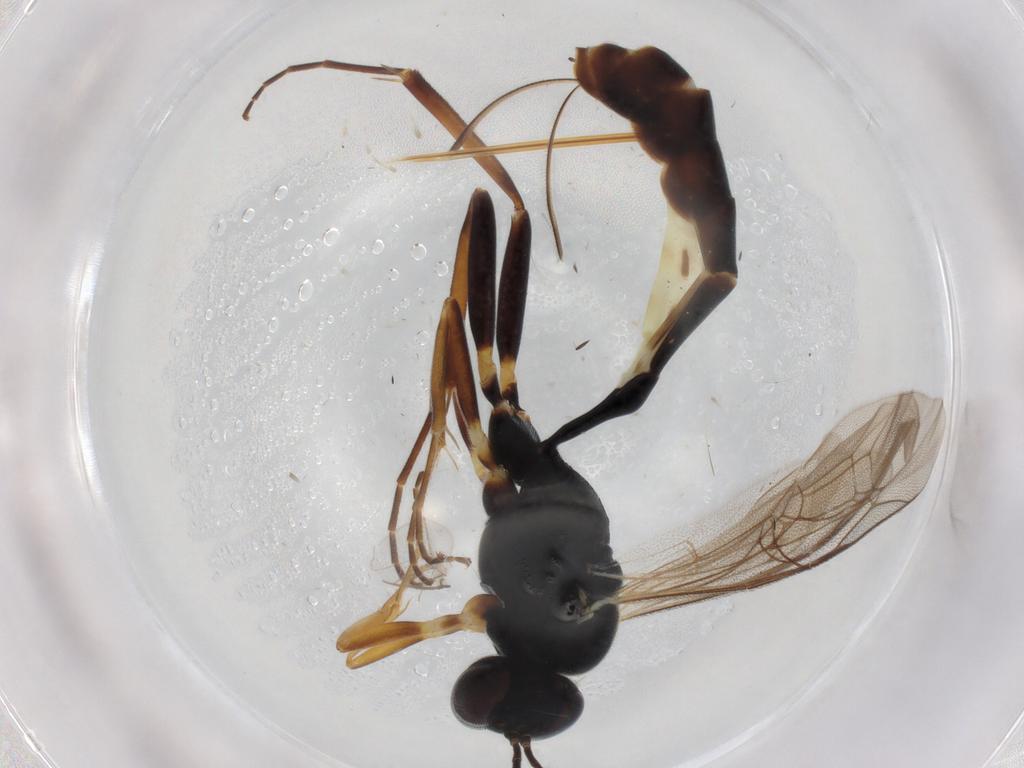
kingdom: Animalia
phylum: Arthropoda
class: Insecta
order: Hymenoptera
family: Ichneumonidae
